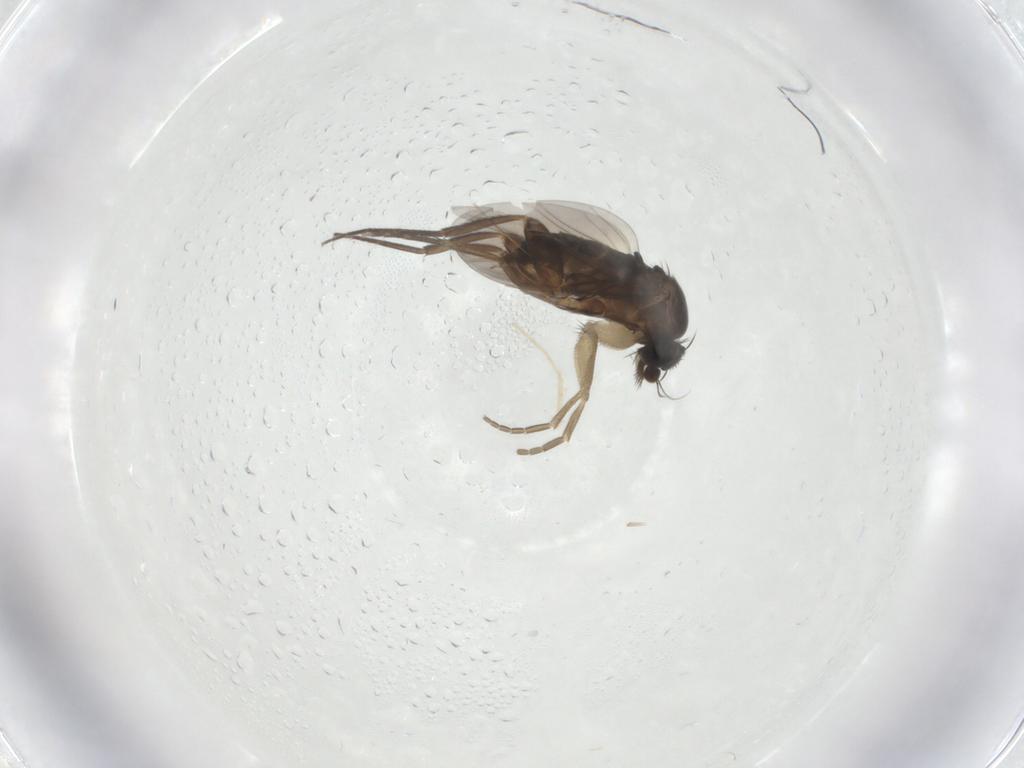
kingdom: Animalia
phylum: Arthropoda
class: Insecta
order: Diptera
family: Phoridae
